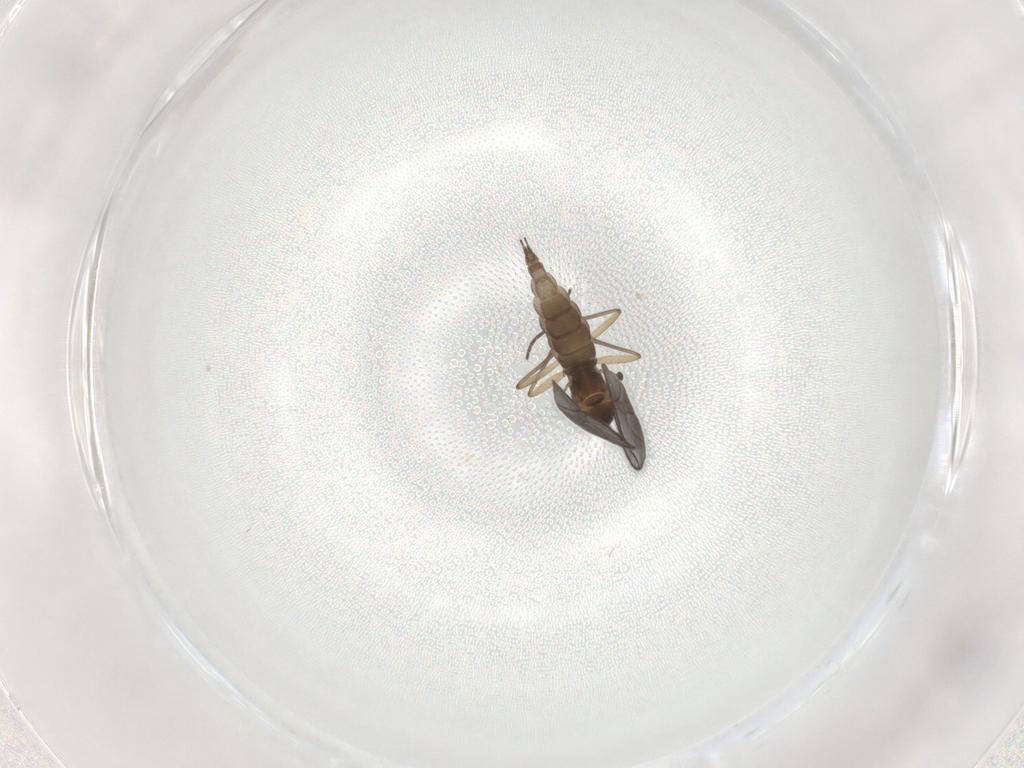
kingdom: Animalia
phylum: Arthropoda
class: Insecta
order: Diptera
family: Sciaridae
